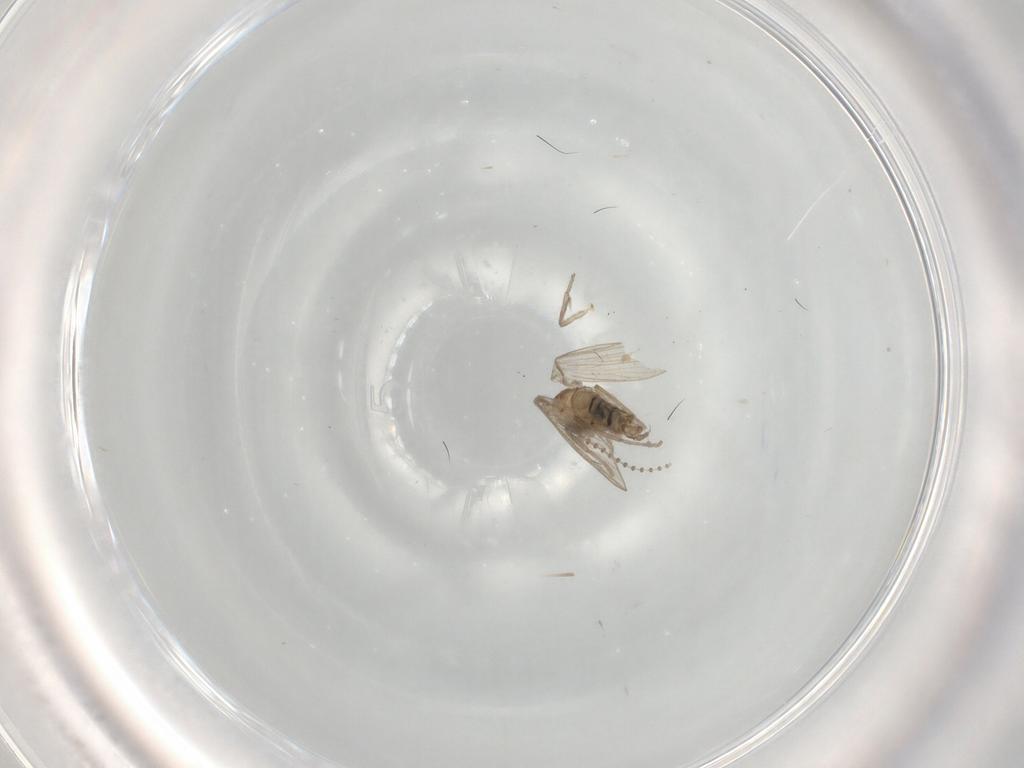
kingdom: Animalia
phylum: Arthropoda
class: Insecta
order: Diptera
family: Psychodidae
